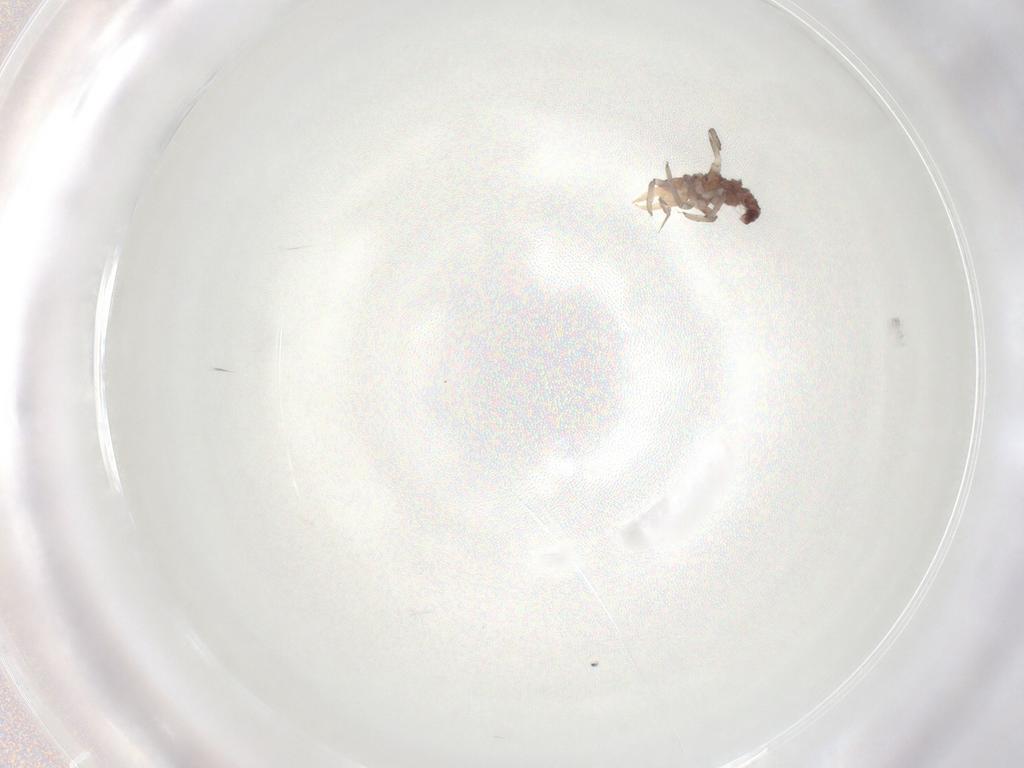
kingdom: Animalia
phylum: Arthropoda
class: Insecta
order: Neuroptera
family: Hemerobiidae
